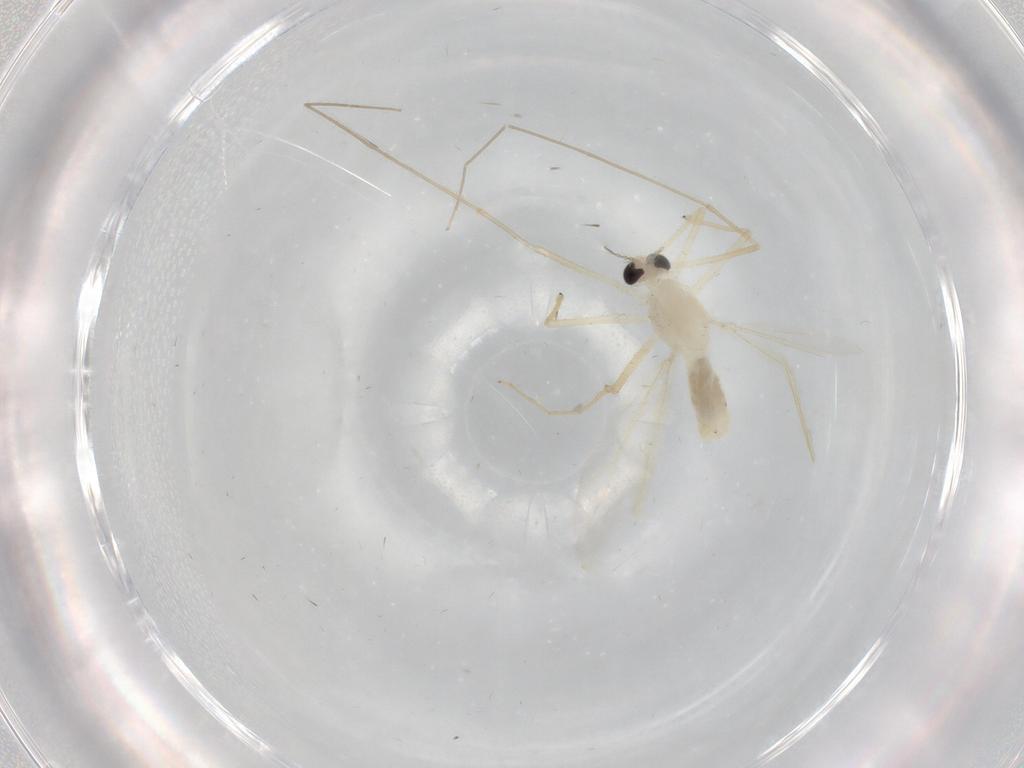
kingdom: Animalia
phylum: Arthropoda
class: Insecta
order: Diptera
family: Chironomidae
